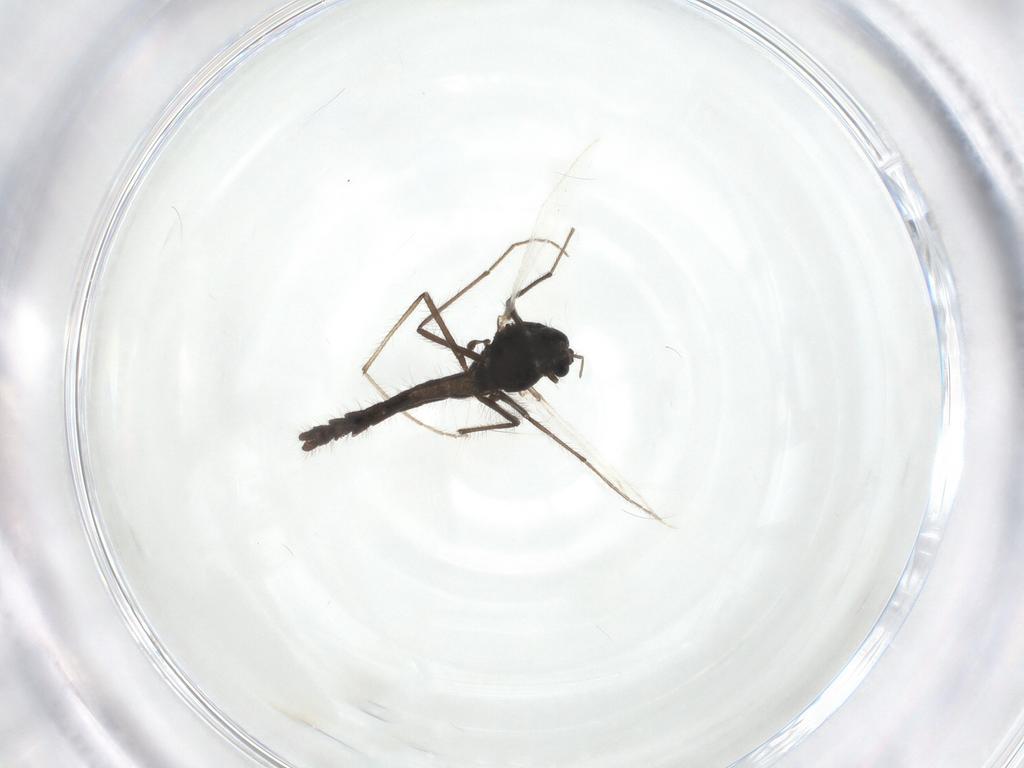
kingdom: Animalia
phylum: Arthropoda
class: Insecta
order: Diptera
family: Chironomidae
